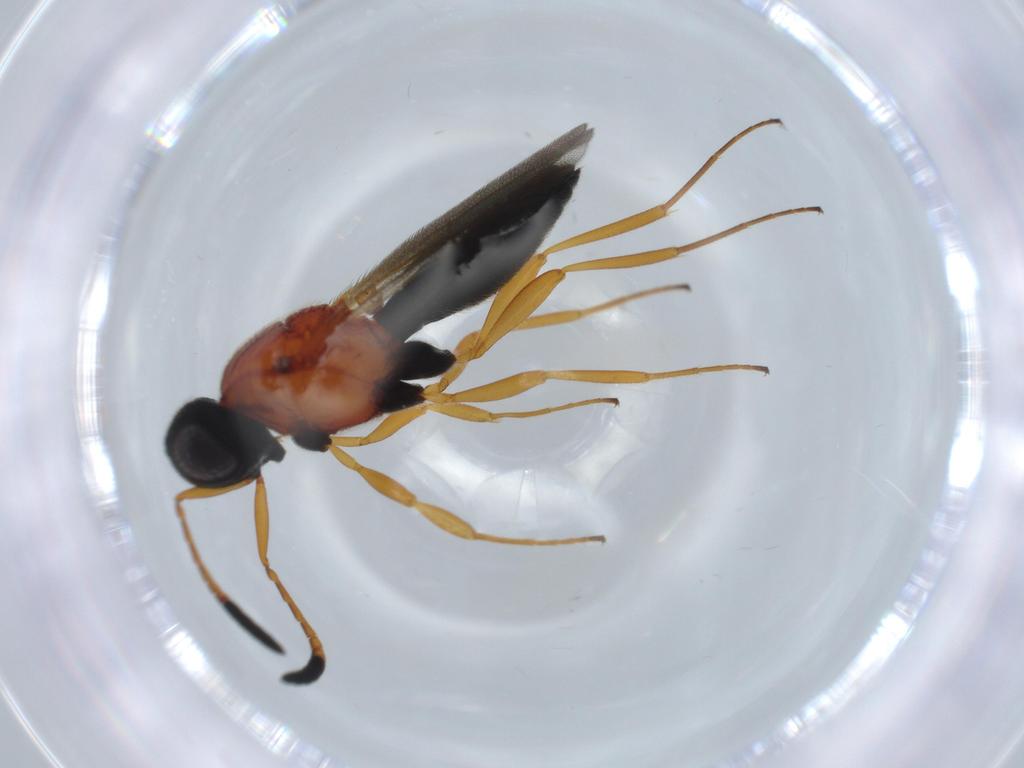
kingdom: Animalia
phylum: Arthropoda
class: Insecta
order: Hymenoptera
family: Scelionidae
